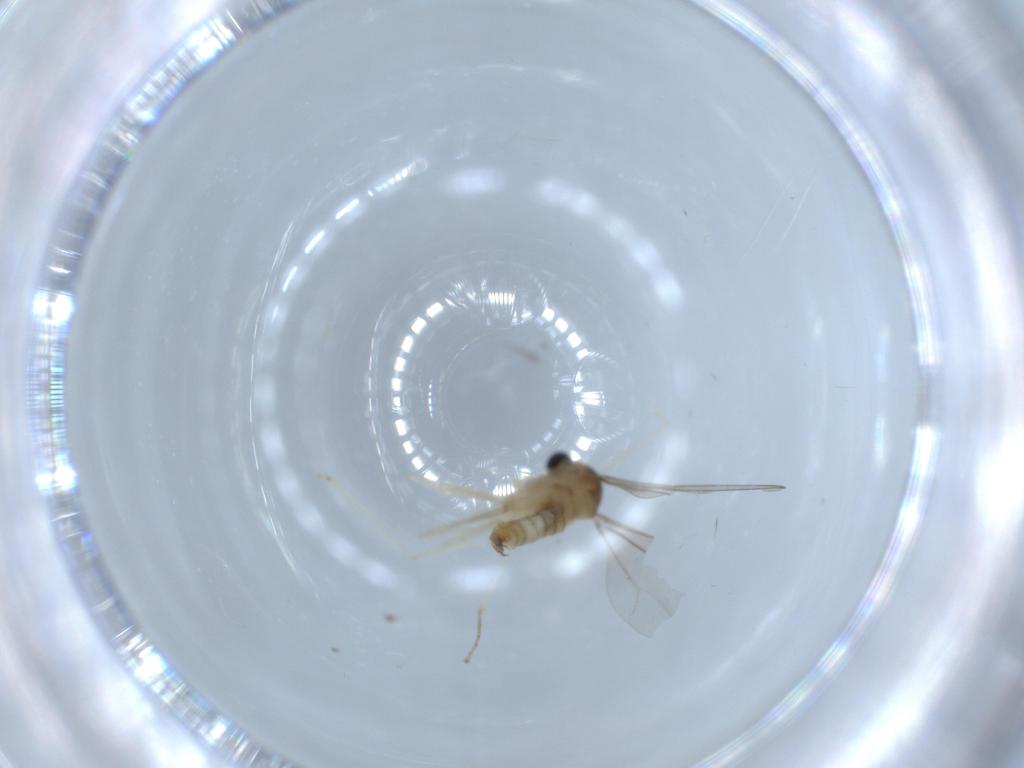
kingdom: Animalia
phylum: Arthropoda
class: Insecta
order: Diptera
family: Cecidomyiidae
